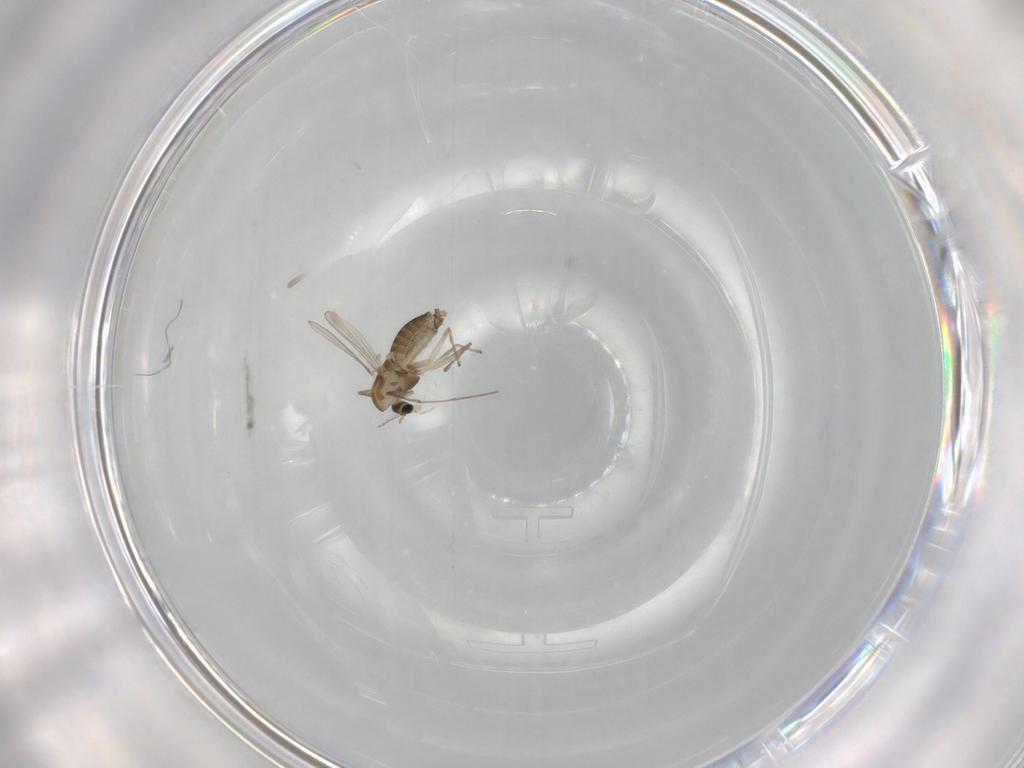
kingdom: Animalia
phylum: Arthropoda
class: Insecta
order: Diptera
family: Chironomidae
